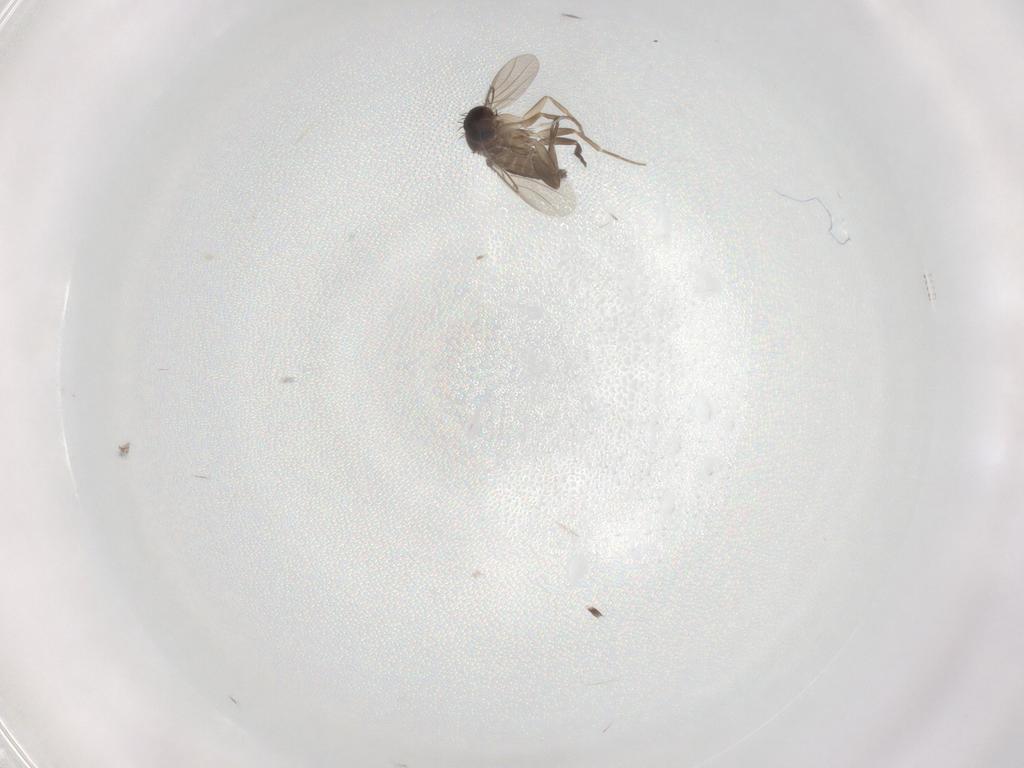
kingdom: Animalia
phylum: Arthropoda
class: Insecta
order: Diptera
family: Phoridae
